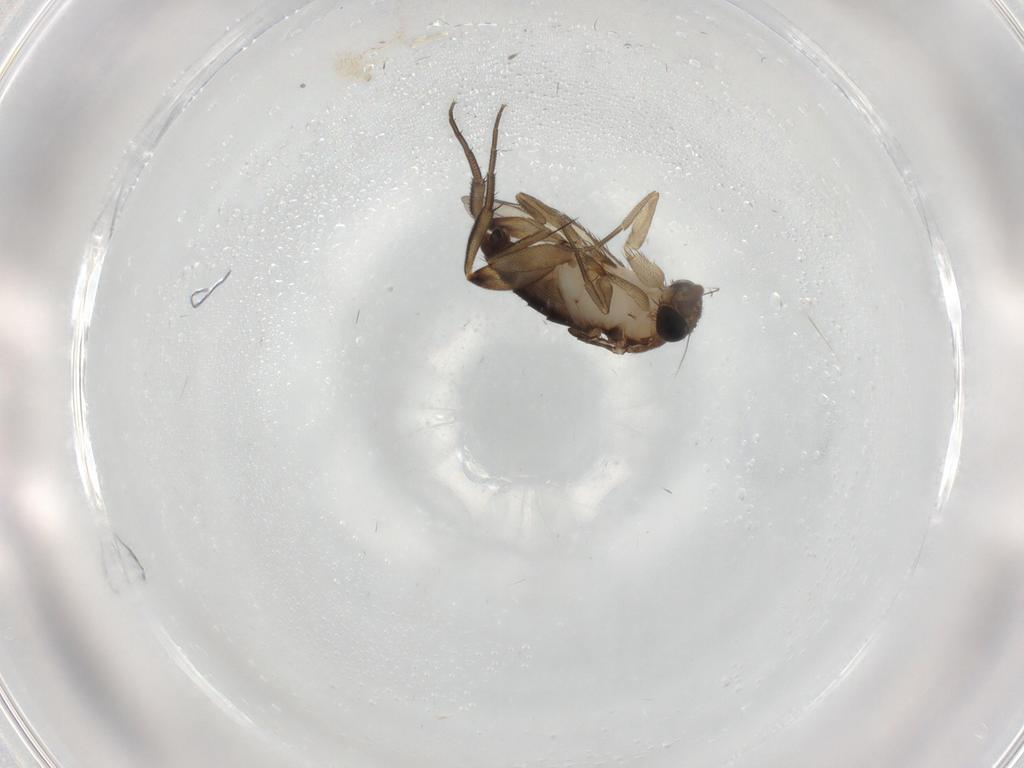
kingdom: Animalia
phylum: Arthropoda
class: Insecta
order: Diptera
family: Phoridae
